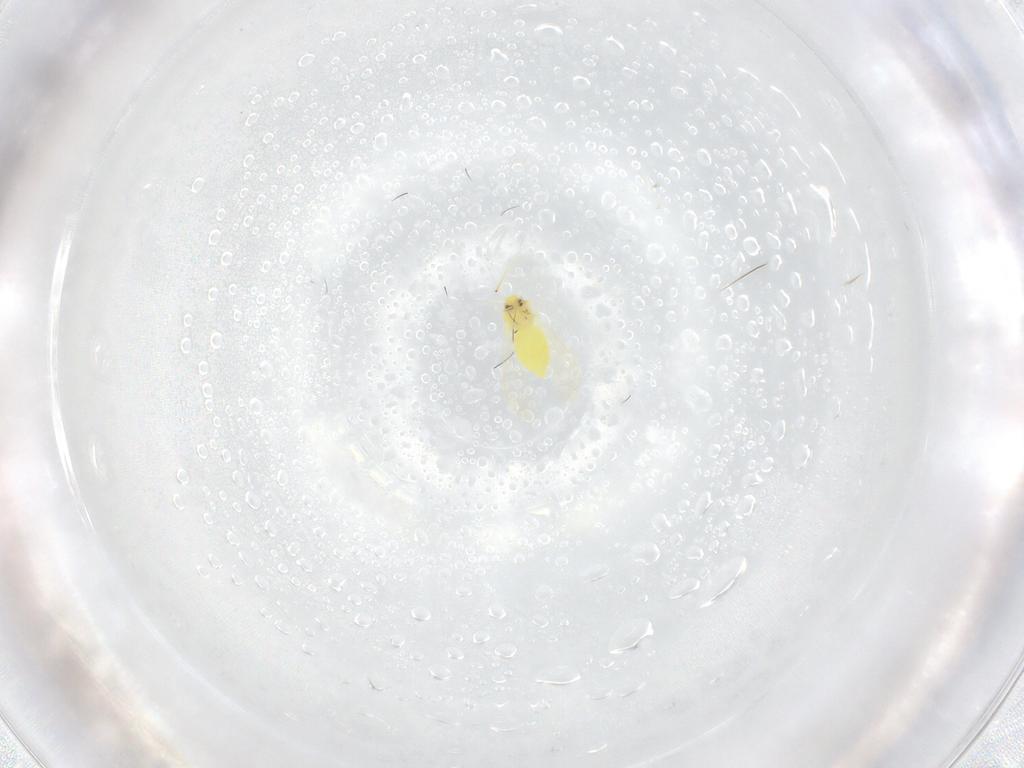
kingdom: Animalia
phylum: Arthropoda
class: Insecta
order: Hemiptera
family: Aleyrodidae
